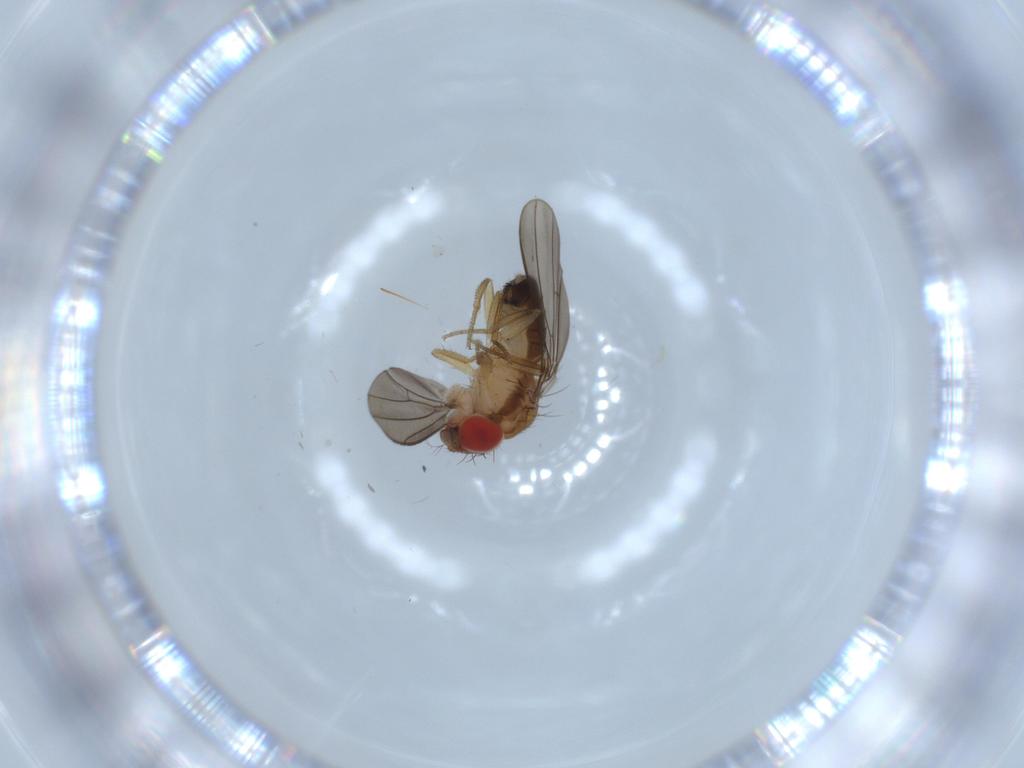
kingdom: Animalia
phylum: Arthropoda
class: Insecta
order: Diptera
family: Drosophilidae
